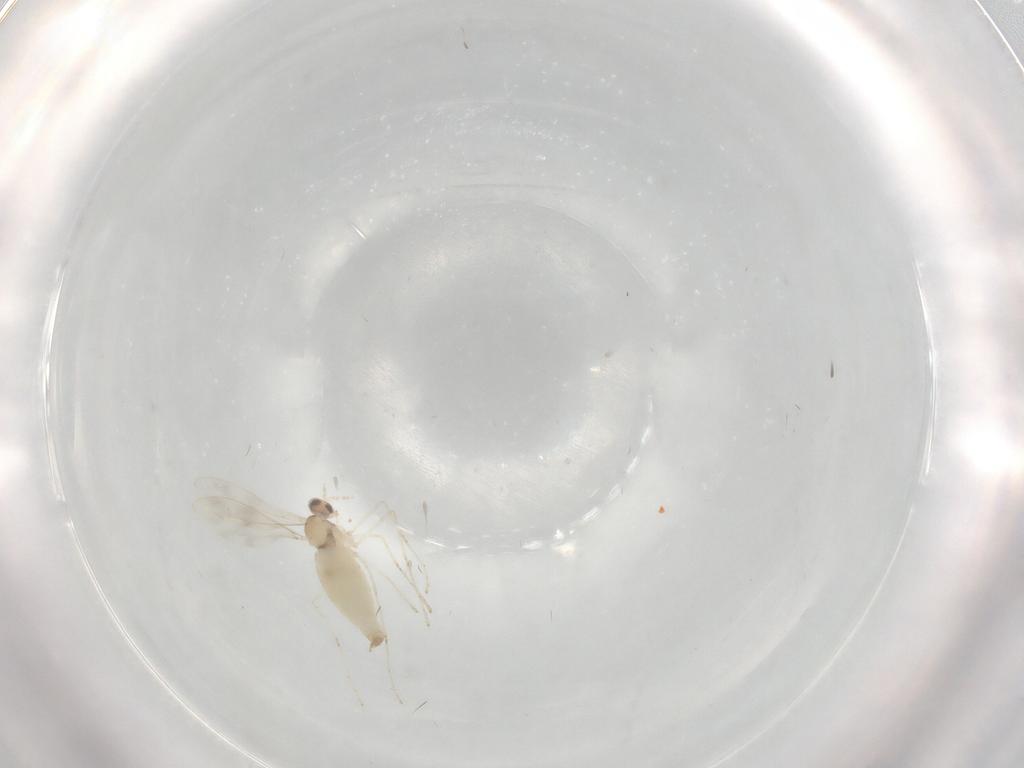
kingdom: Animalia
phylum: Arthropoda
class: Insecta
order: Diptera
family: Cecidomyiidae
